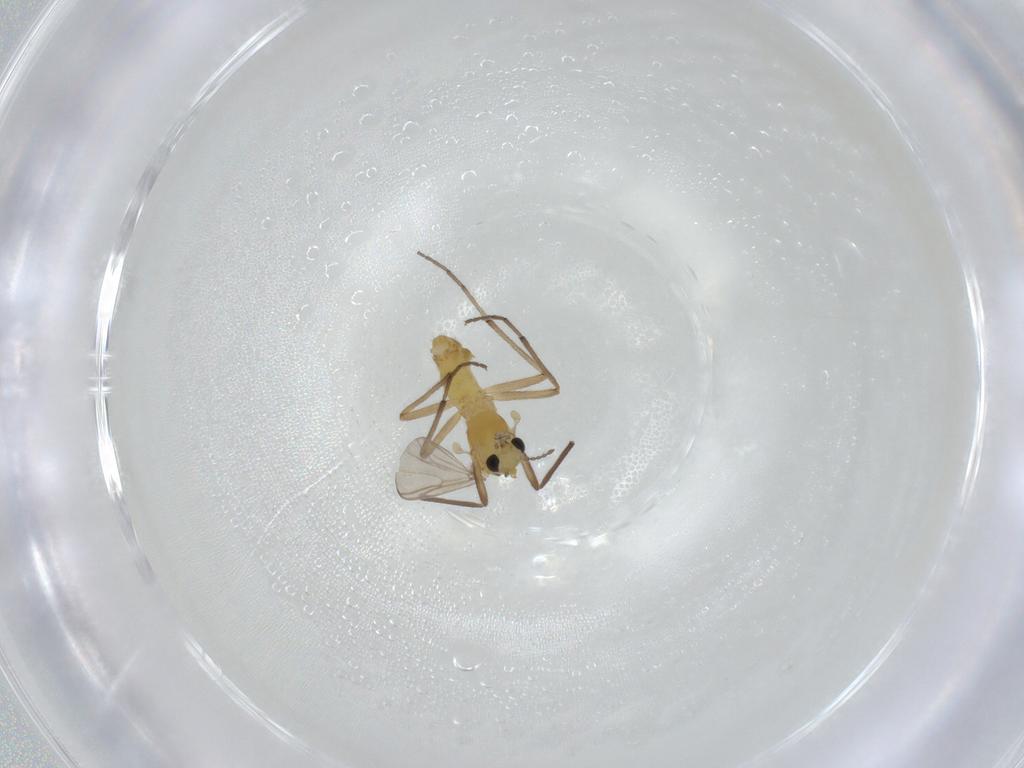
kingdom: Animalia
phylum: Arthropoda
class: Insecta
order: Diptera
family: Chironomidae
